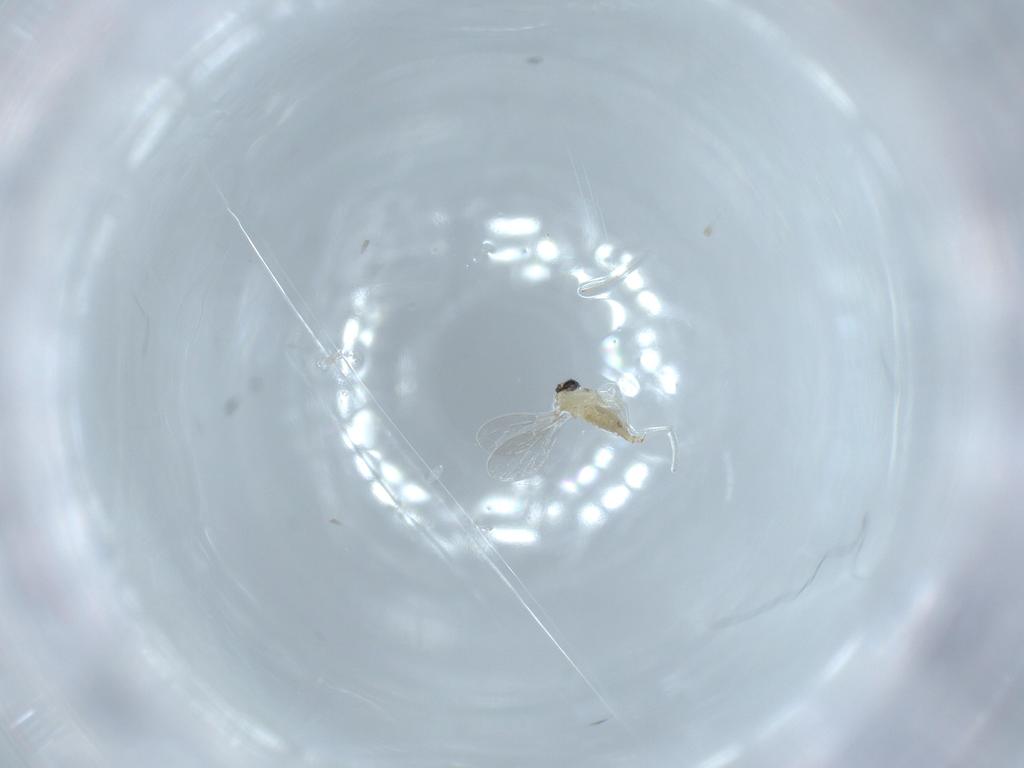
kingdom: Animalia
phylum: Arthropoda
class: Insecta
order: Diptera
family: Cecidomyiidae
